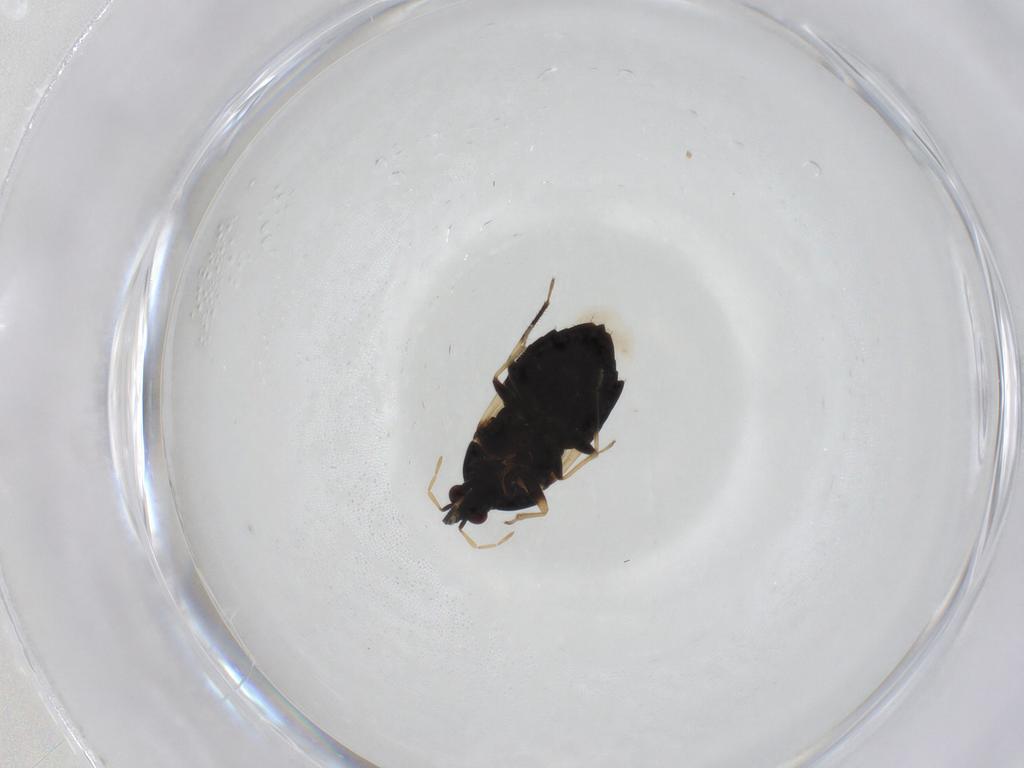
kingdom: Animalia
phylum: Arthropoda
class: Insecta
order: Hemiptera
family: Anthocoridae
